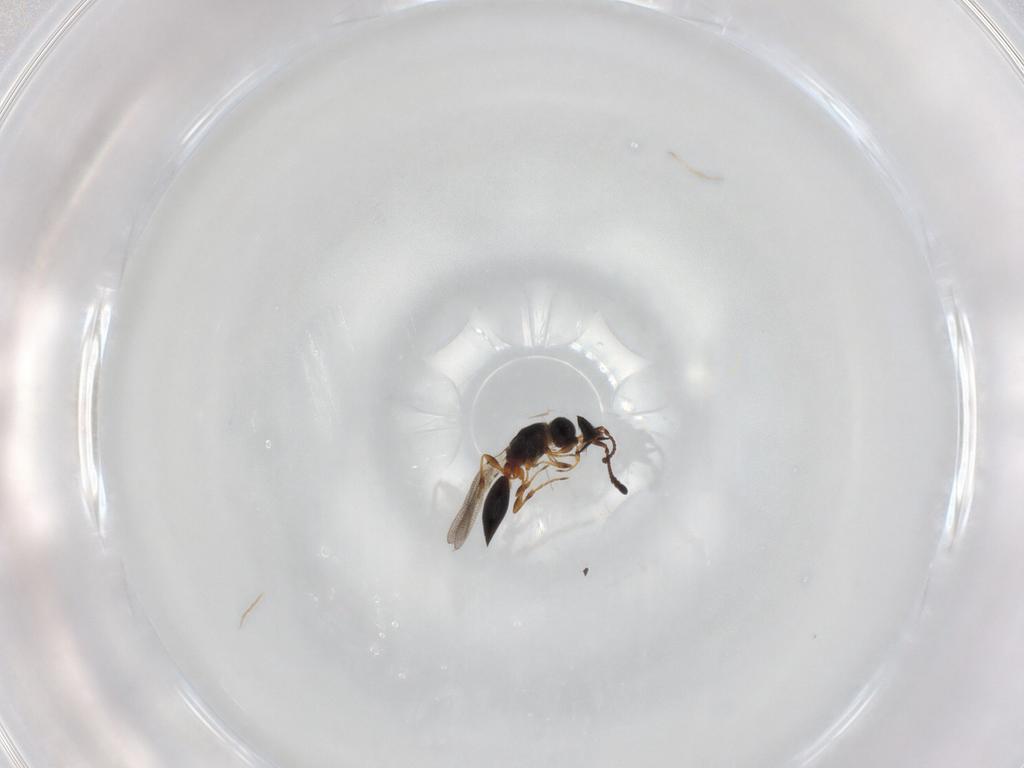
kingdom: Animalia
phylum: Arthropoda
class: Insecta
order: Hymenoptera
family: Diapriidae
